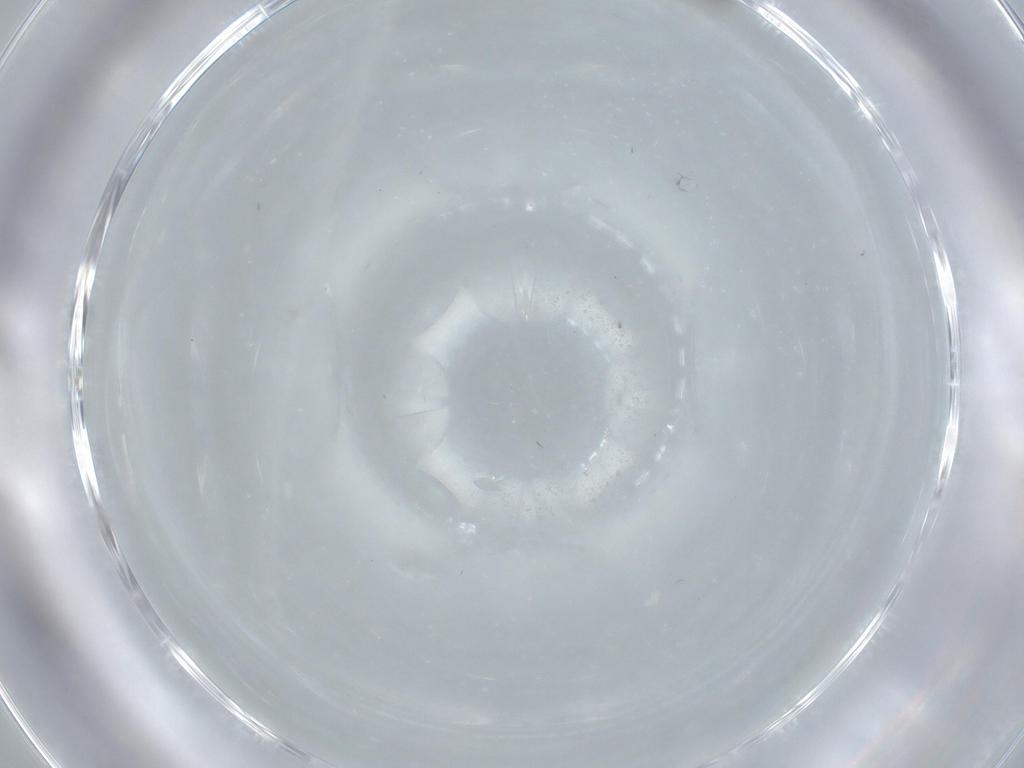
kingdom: Animalia
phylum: Arthropoda
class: Insecta
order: Diptera
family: Phoridae
